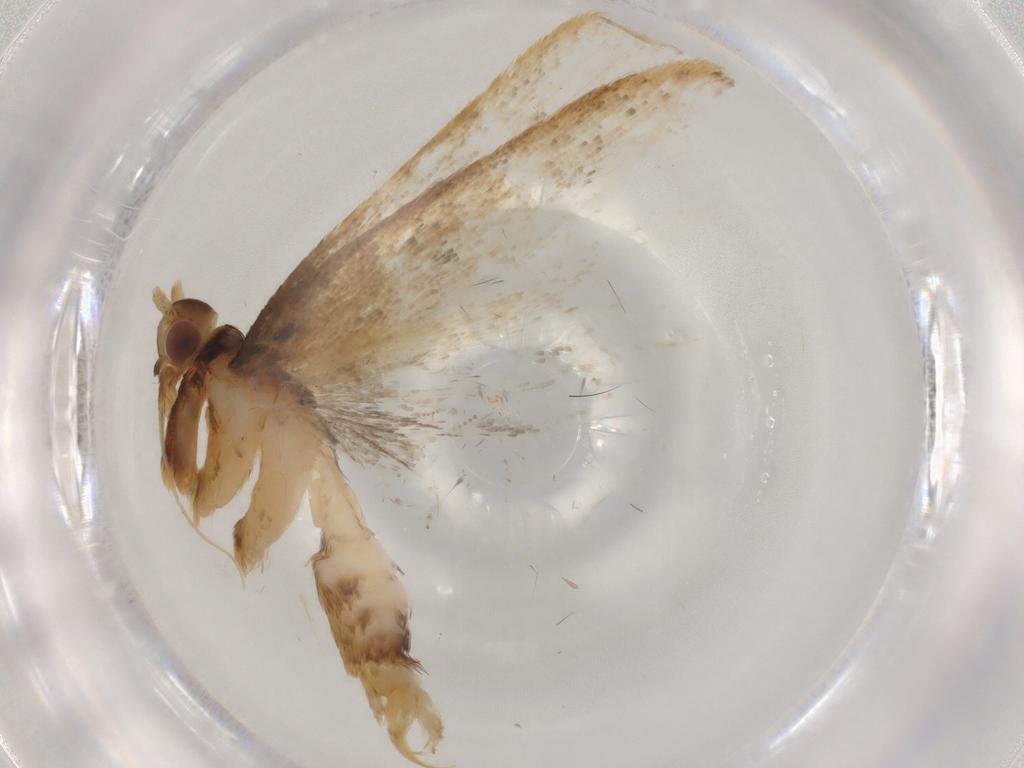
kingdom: Animalia
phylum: Arthropoda
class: Insecta
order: Lepidoptera
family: Lecithoceridae
